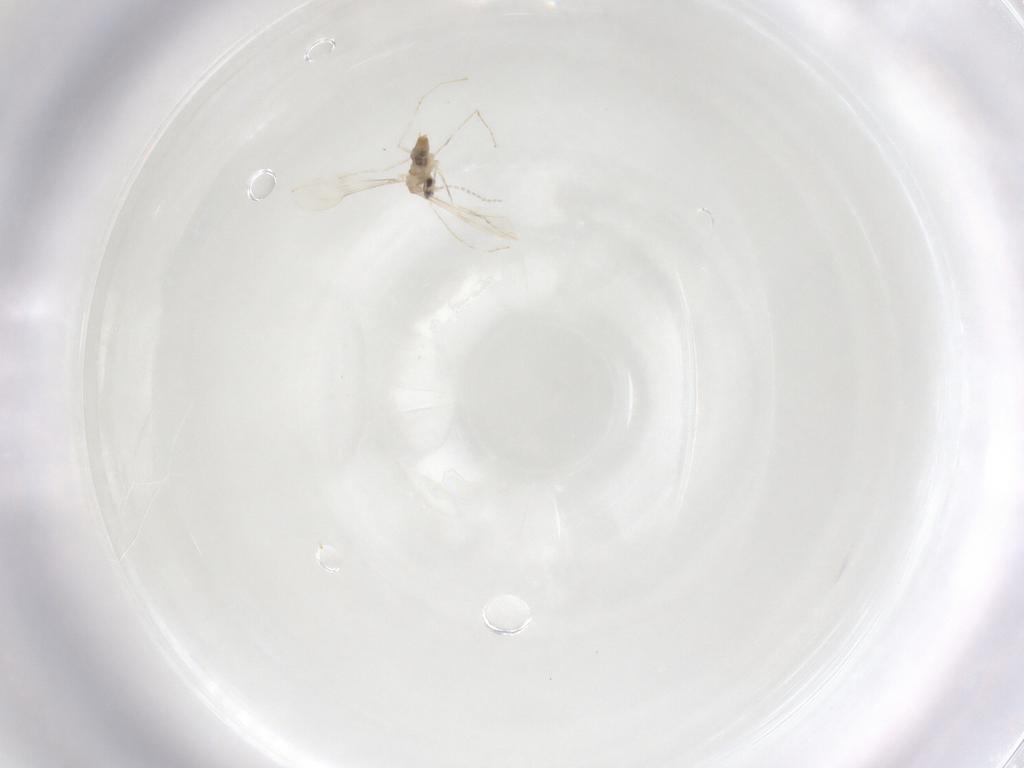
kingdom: Animalia
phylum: Arthropoda
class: Insecta
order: Diptera
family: Cecidomyiidae
